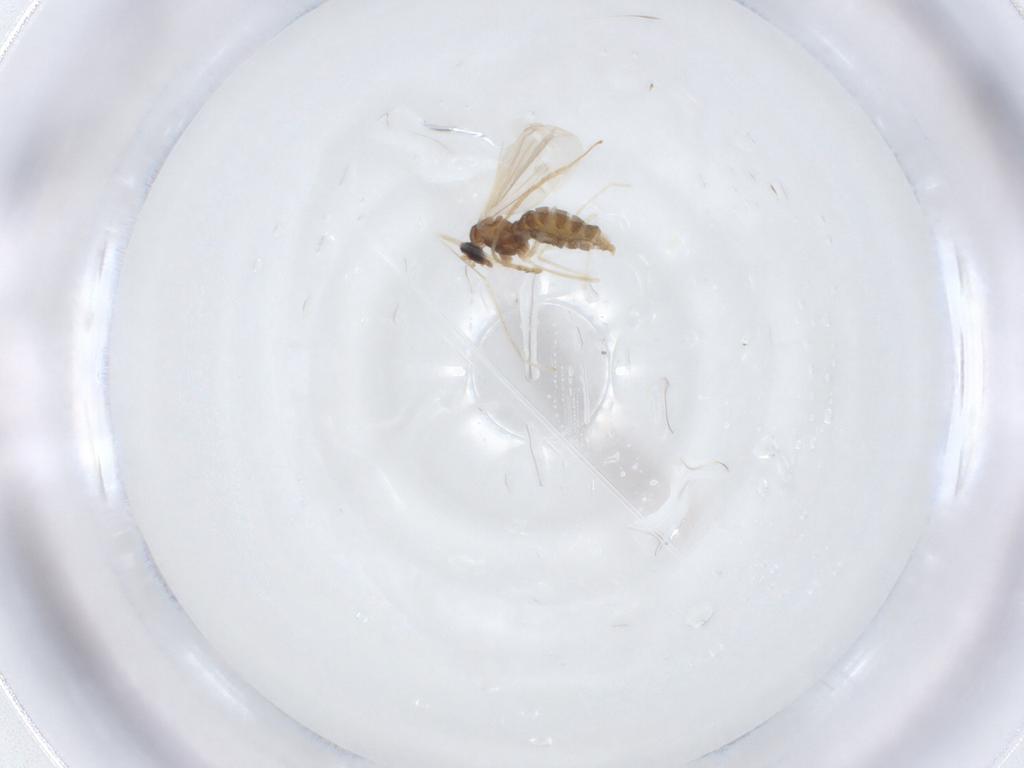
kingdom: Animalia
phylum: Arthropoda
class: Insecta
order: Diptera
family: Cecidomyiidae
